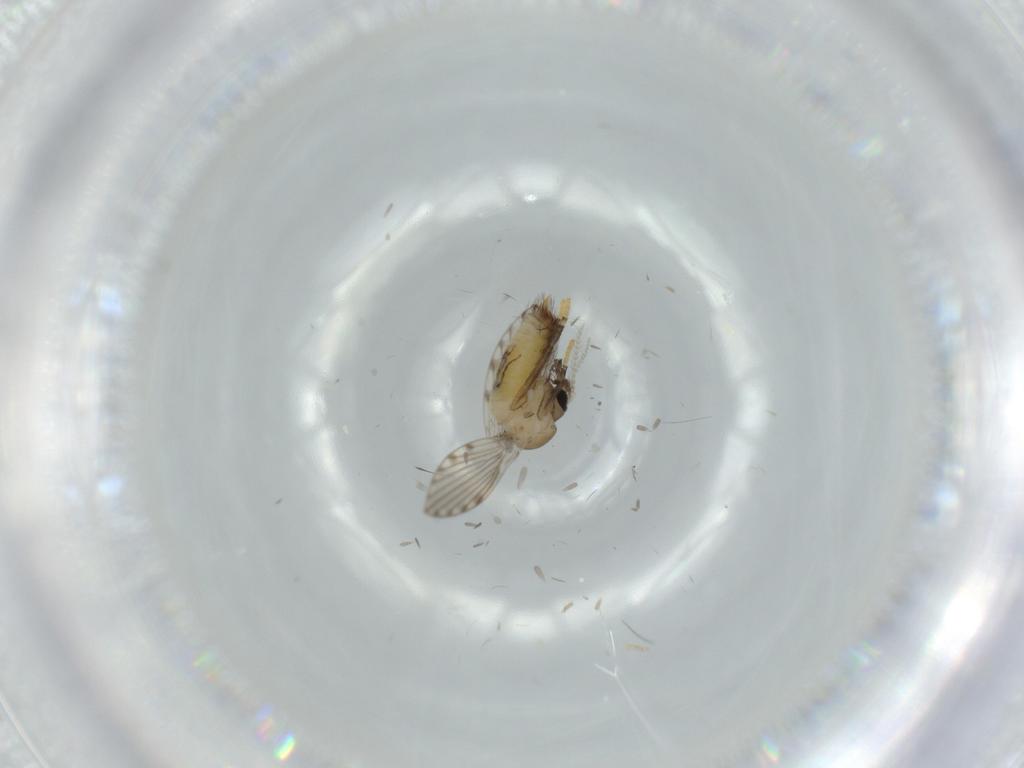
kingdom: Animalia
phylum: Arthropoda
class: Insecta
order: Diptera
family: Psychodidae
